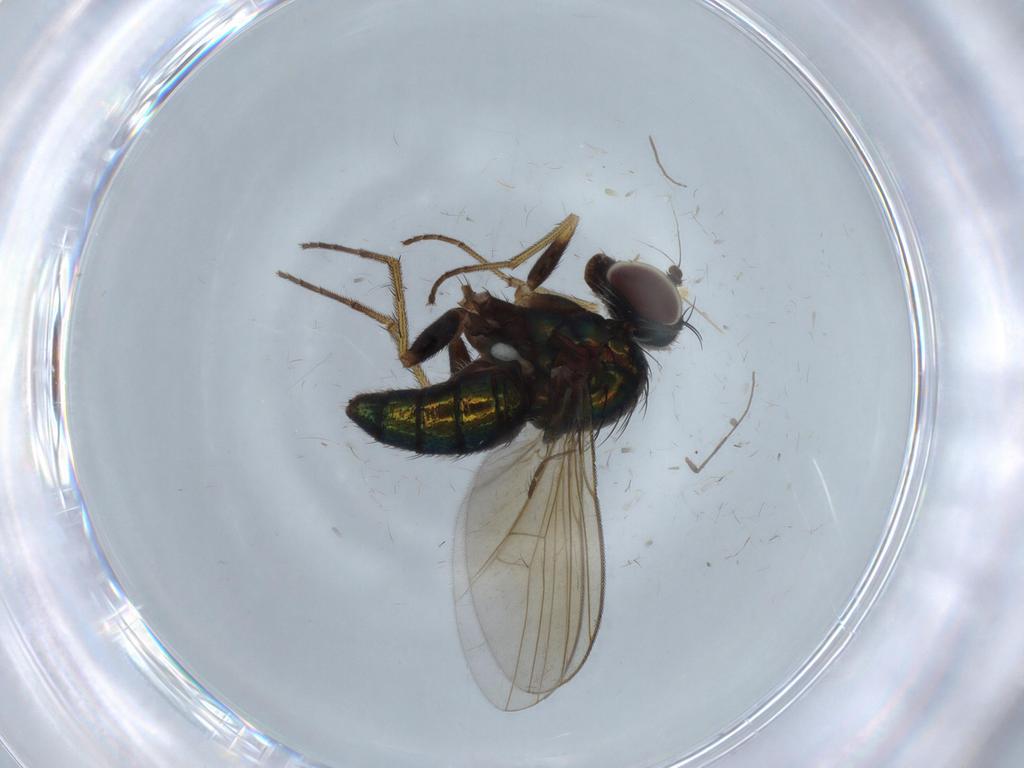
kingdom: Animalia
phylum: Arthropoda
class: Insecta
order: Diptera
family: Dolichopodidae
